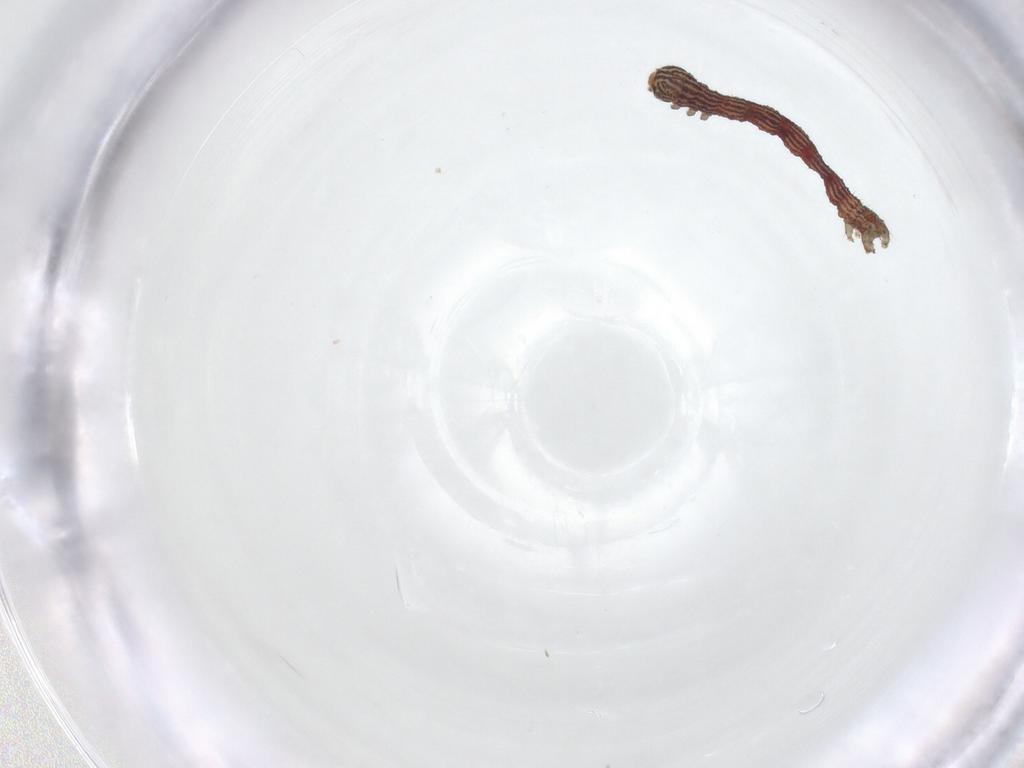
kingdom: Animalia
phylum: Arthropoda
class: Insecta
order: Lepidoptera
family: Geometridae
